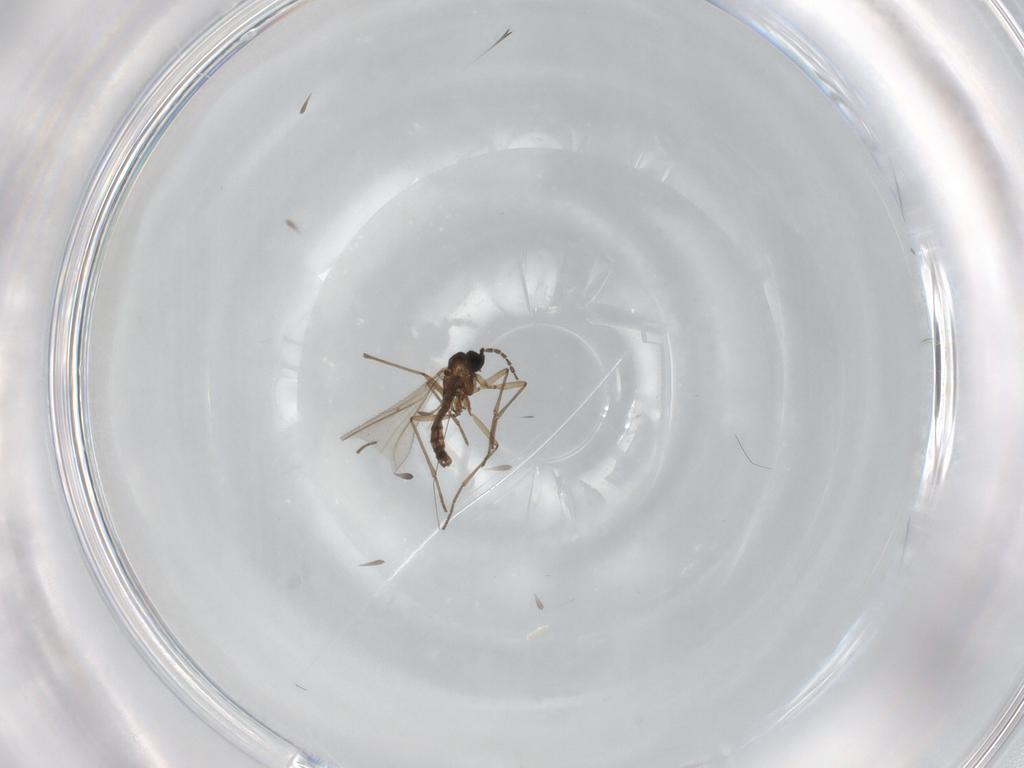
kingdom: Animalia
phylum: Arthropoda
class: Insecta
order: Diptera
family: Sciaridae
